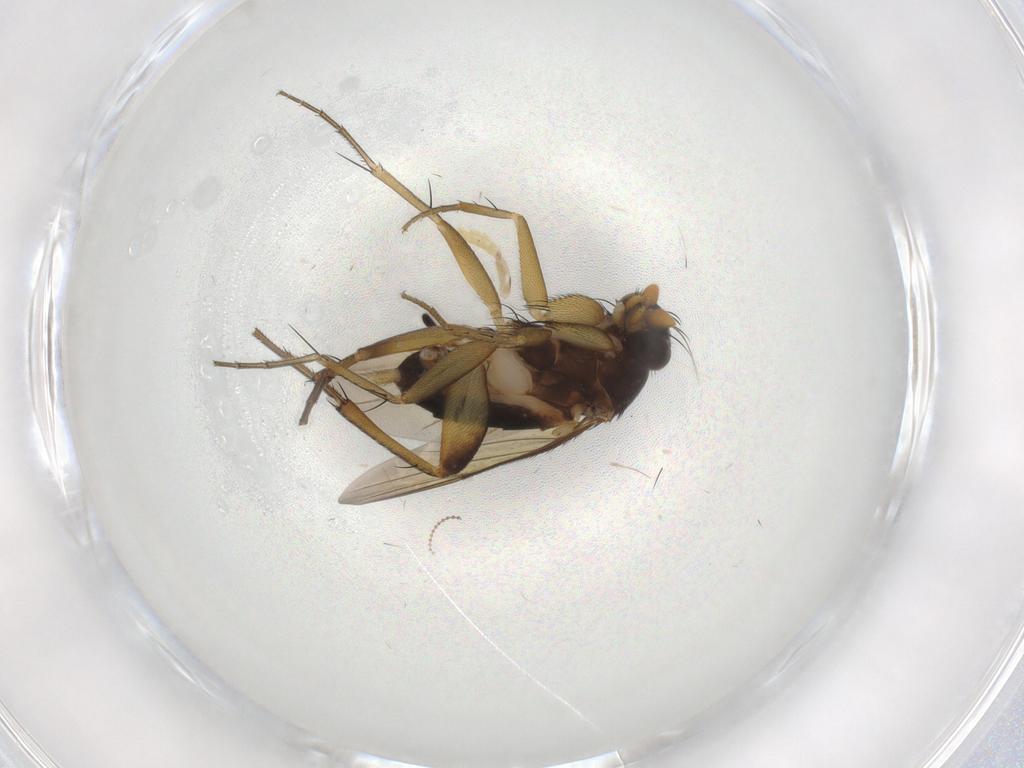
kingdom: Animalia
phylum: Arthropoda
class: Insecta
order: Diptera
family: Phoridae
